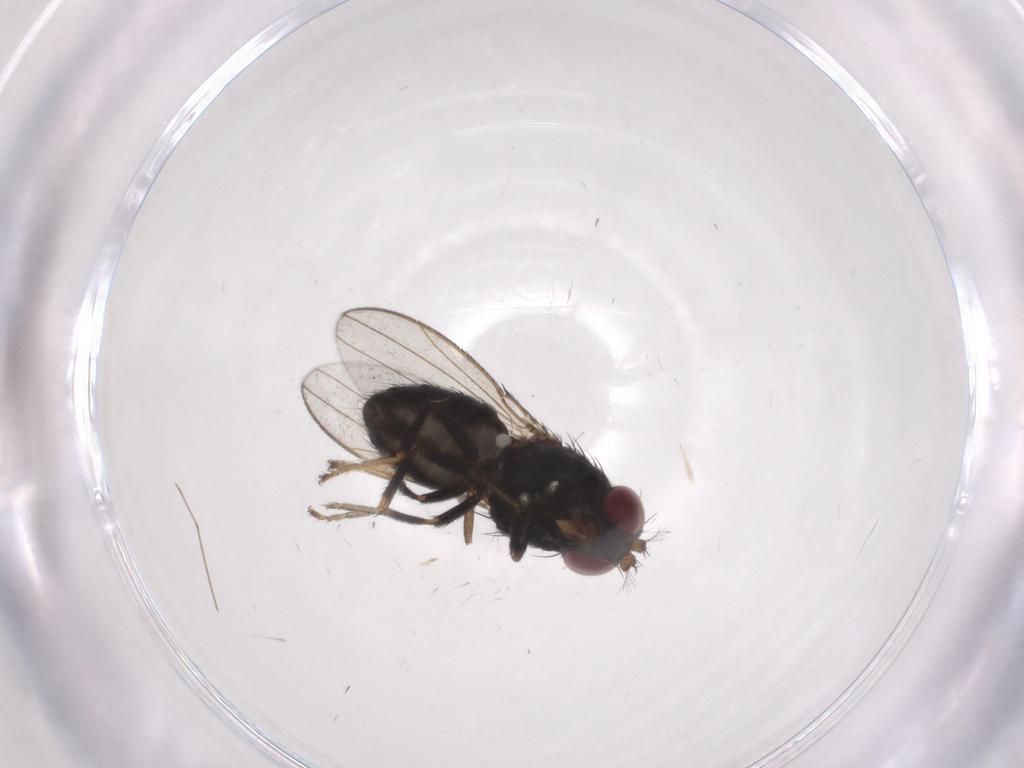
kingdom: Animalia
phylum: Arthropoda
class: Insecta
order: Diptera
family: Ephydridae
